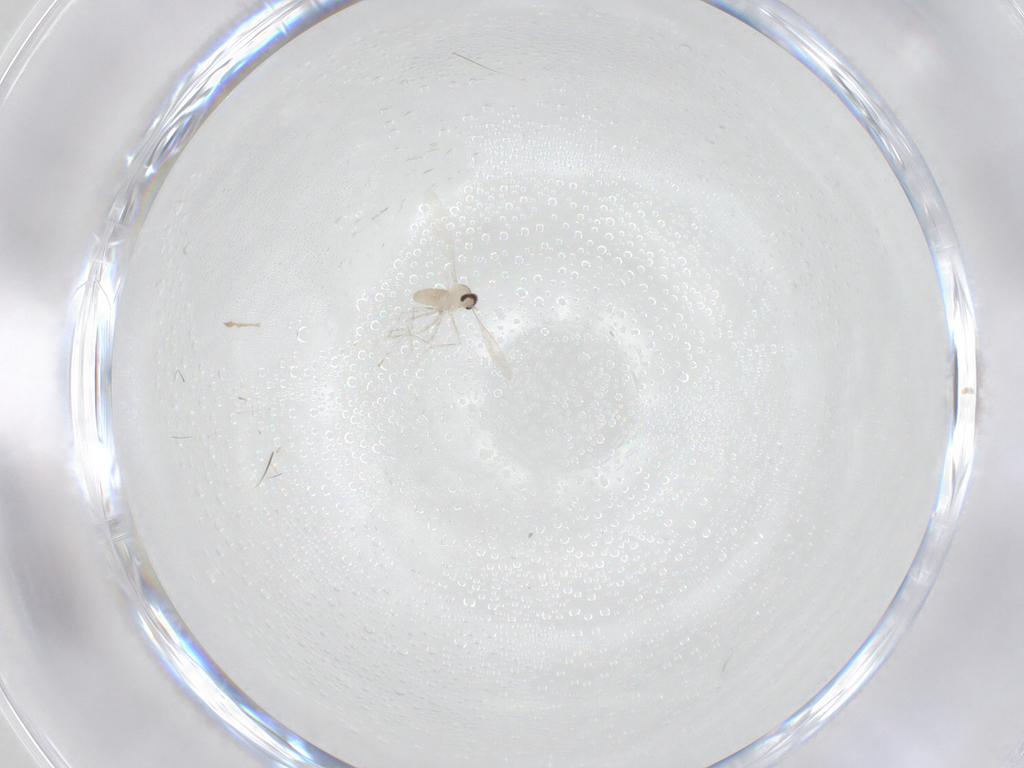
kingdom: Animalia
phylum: Arthropoda
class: Insecta
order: Diptera
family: Cecidomyiidae
